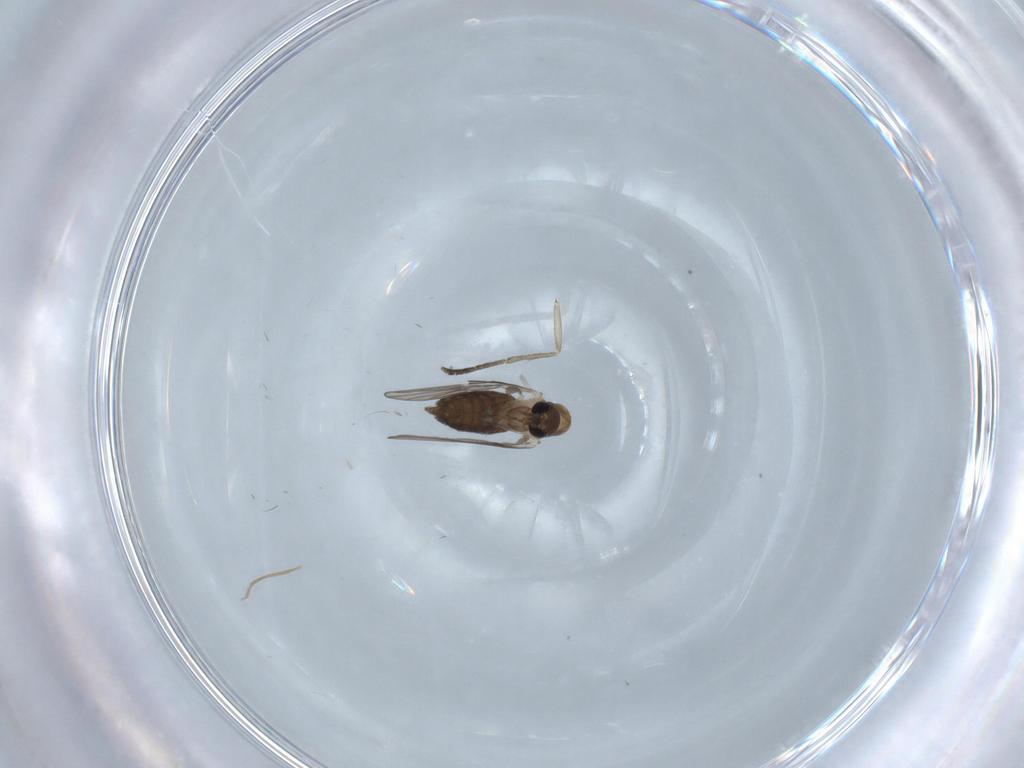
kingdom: Animalia
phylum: Arthropoda
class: Insecta
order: Diptera
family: Psychodidae
